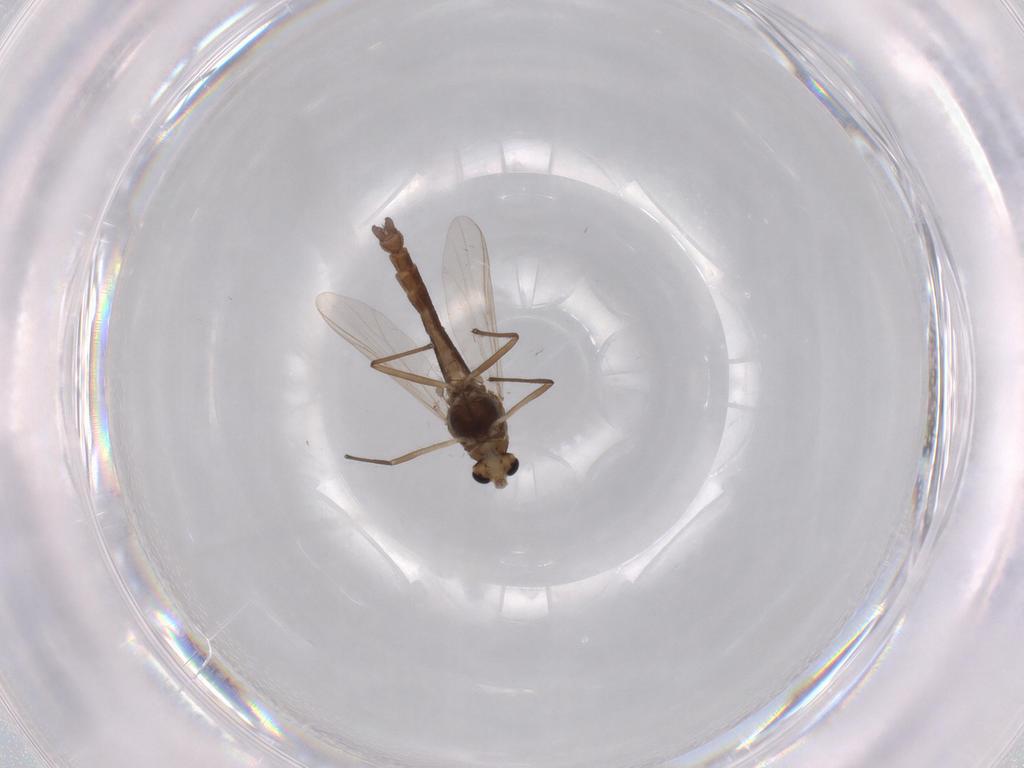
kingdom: Animalia
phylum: Arthropoda
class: Insecta
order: Diptera
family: Chironomidae
